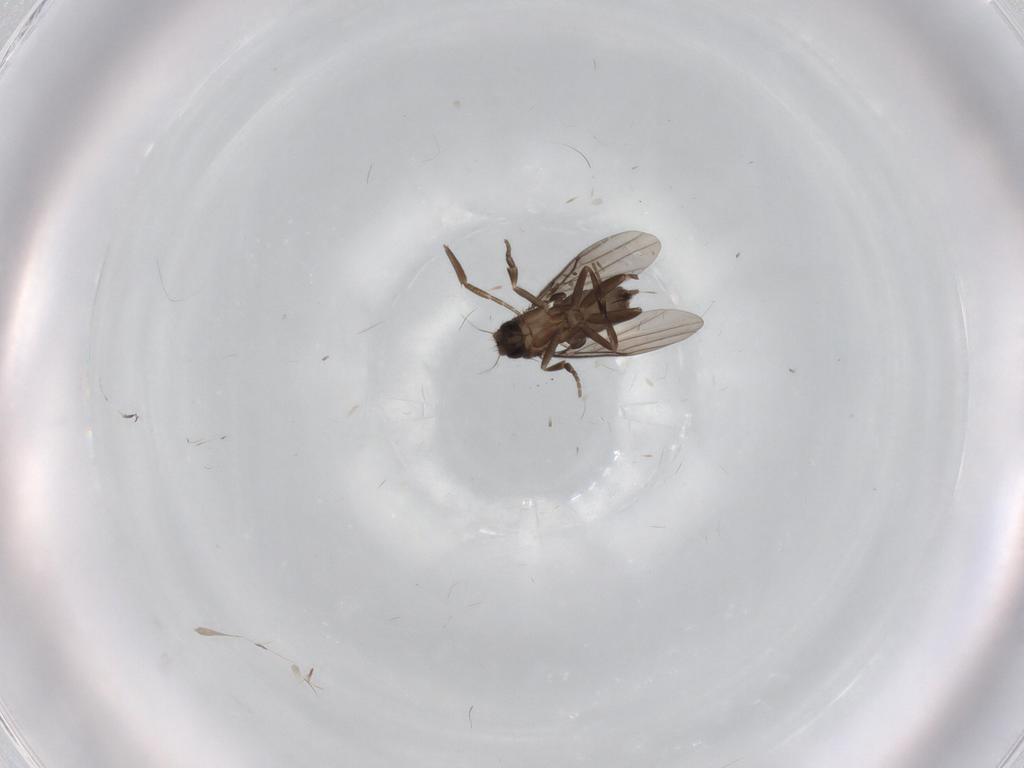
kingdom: Animalia
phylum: Arthropoda
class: Insecta
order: Diptera
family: Phoridae
